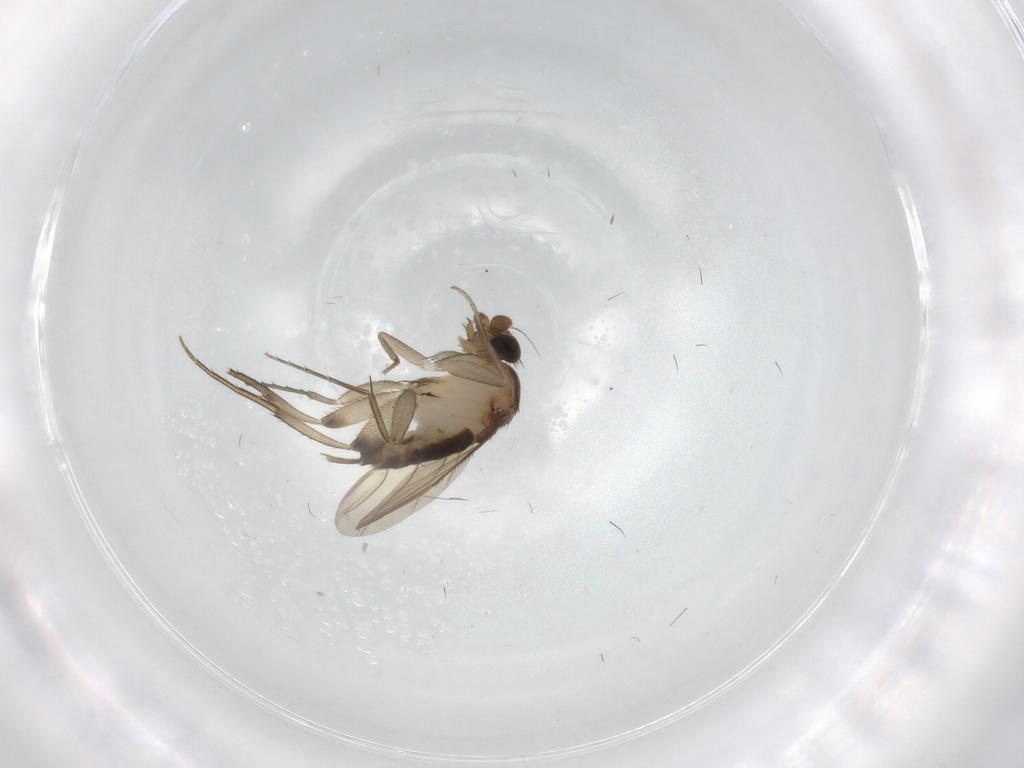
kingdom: Animalia
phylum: Arthropoda
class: Insecta
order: Diptera
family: Phoridae
